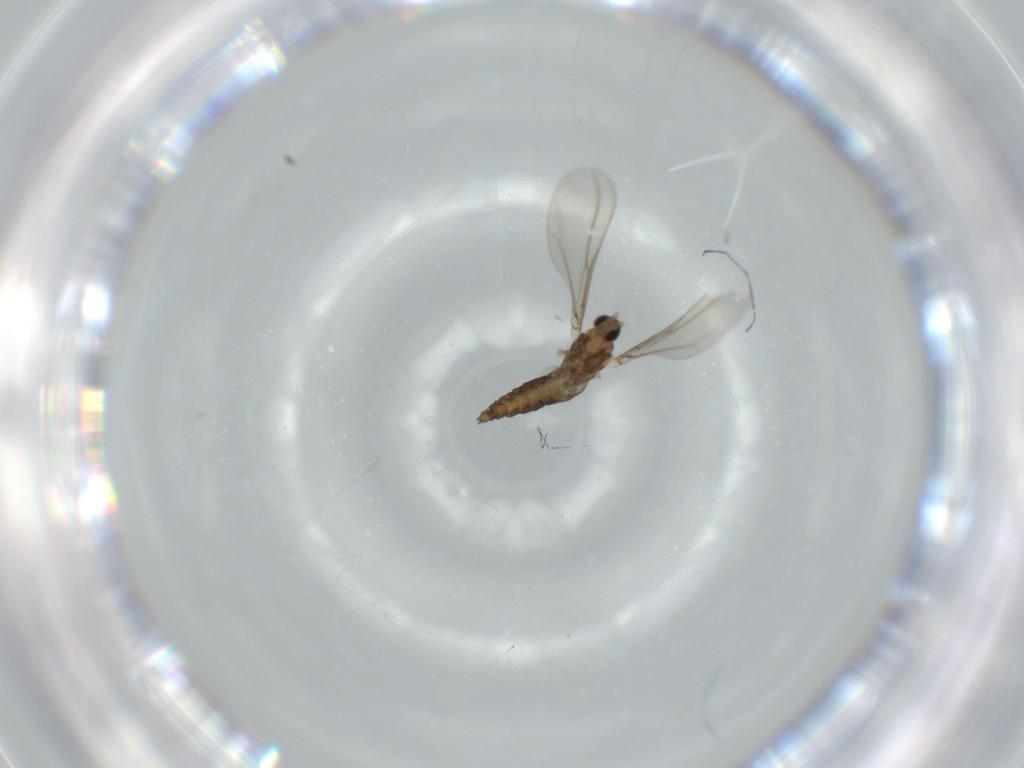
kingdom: Animalia
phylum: Arthropoda
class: Insecta
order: Diptera
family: Cecidomyiidae
